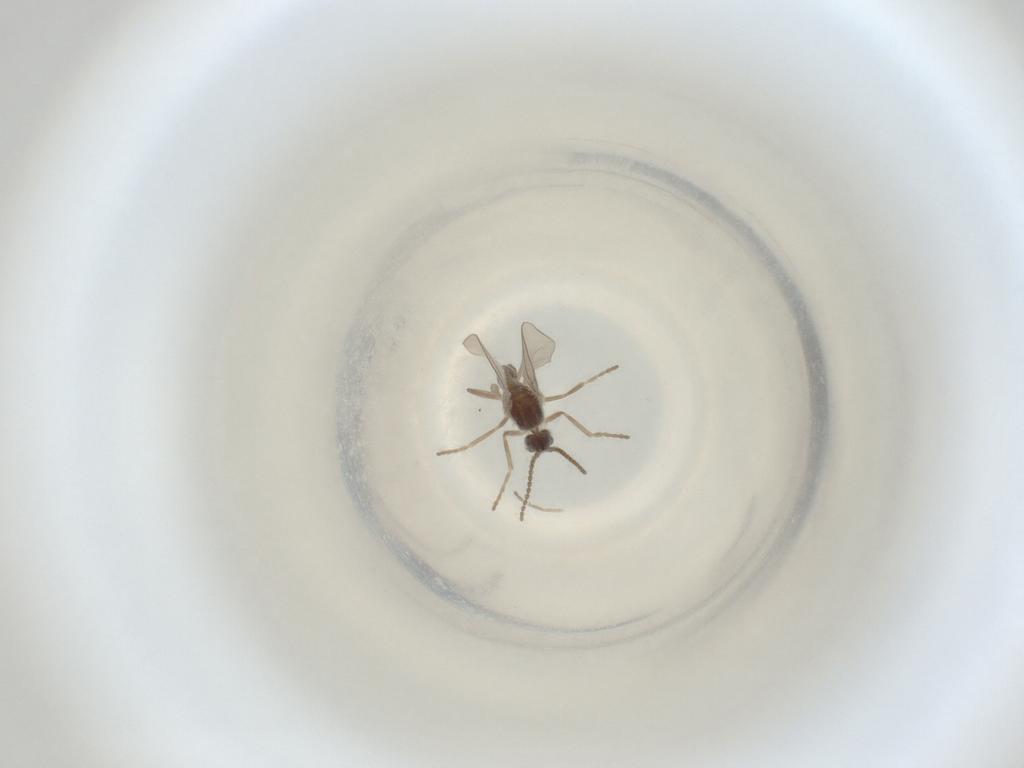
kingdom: Animalia
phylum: Arthropoda
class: Insecta
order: Diptera
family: Cecidomyiidae
